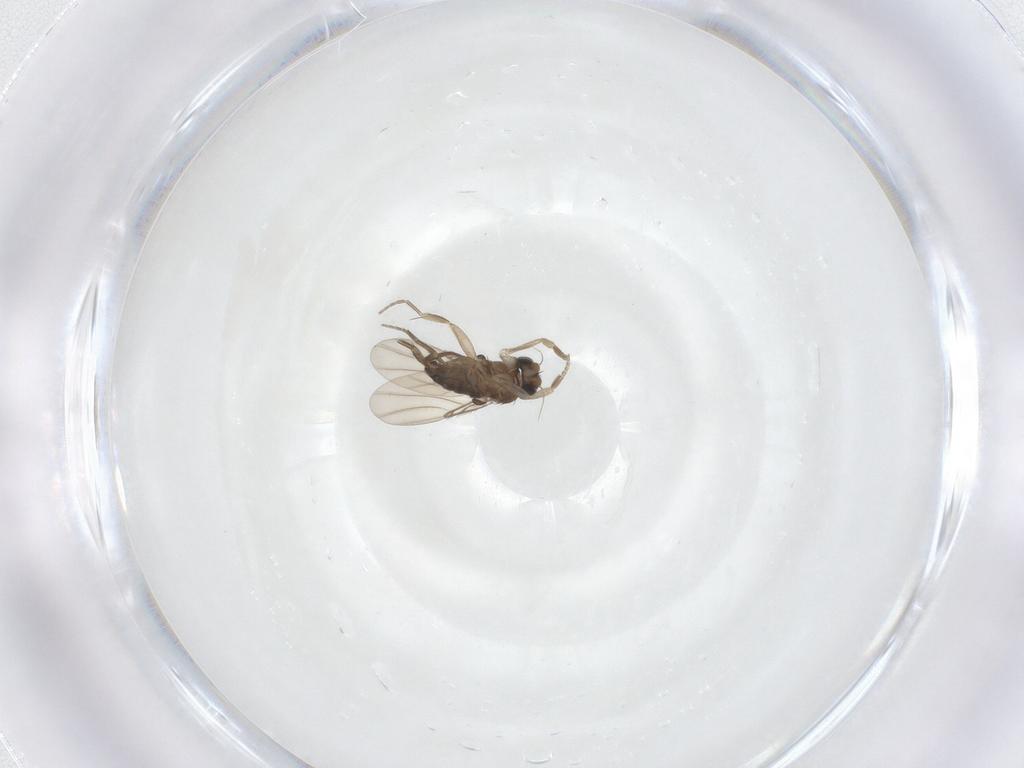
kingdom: Animalia
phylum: Arthropoda
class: Insecta
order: Diptera
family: Phoridae
